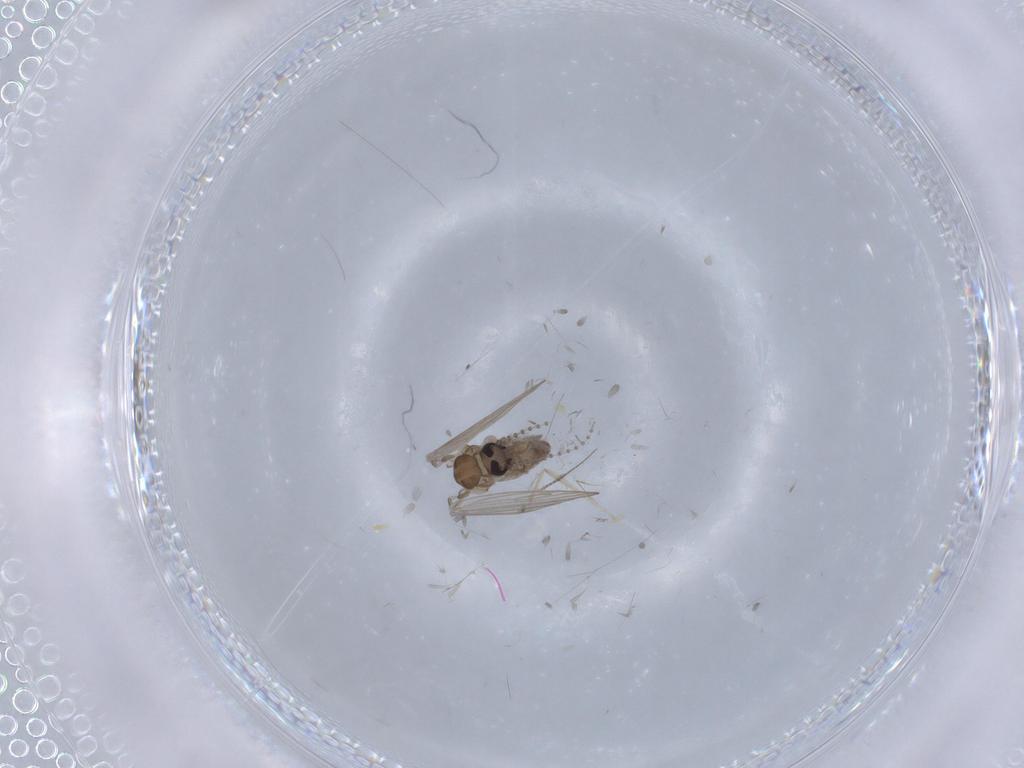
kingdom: Animalia
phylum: Arthropoda
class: Insecta
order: Diptera
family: Psychodidae
